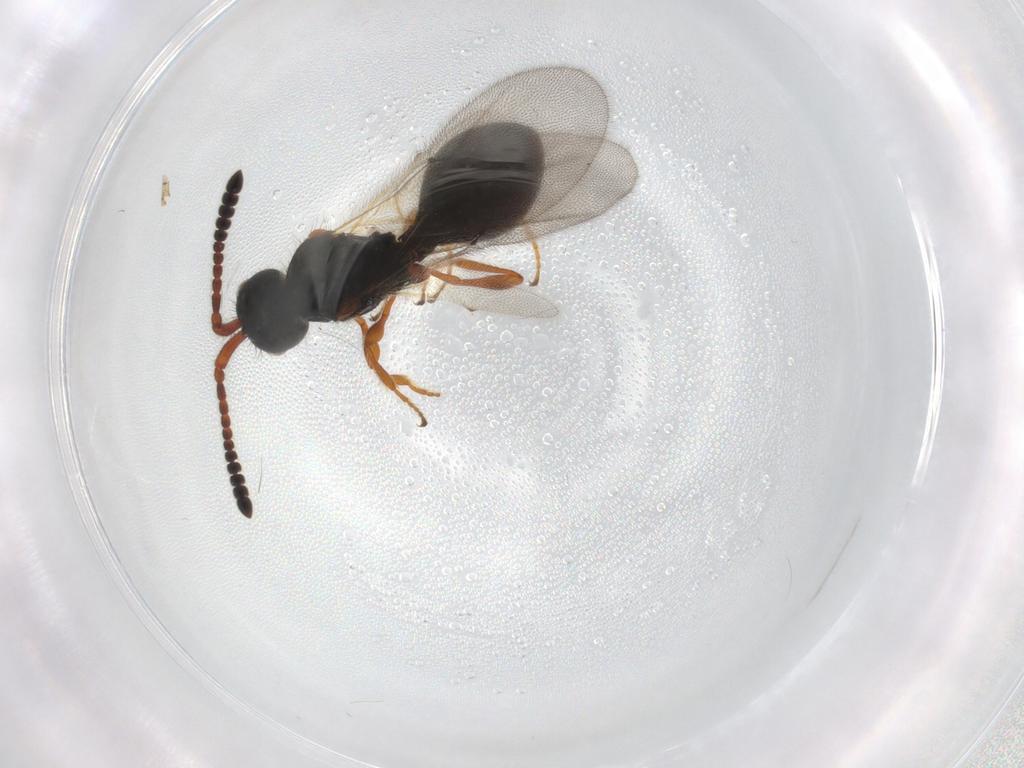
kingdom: Animalia
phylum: Arthropoda
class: Insecta
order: Hymenoptera
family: Diapriidae
